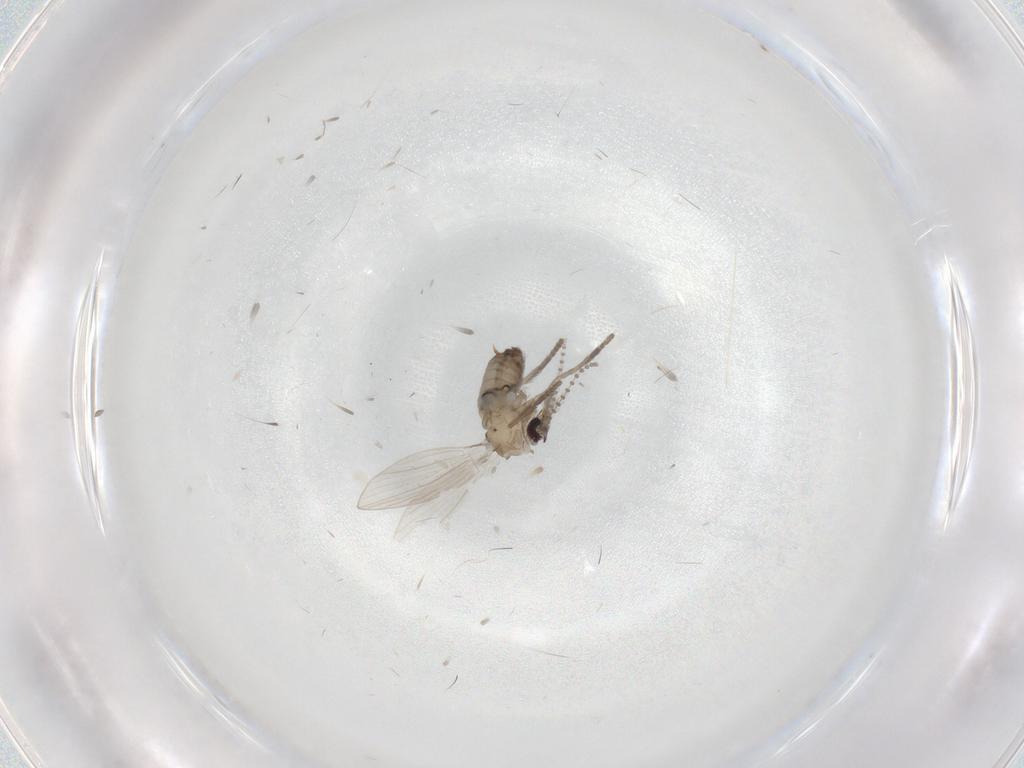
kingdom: Animalia
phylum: Arthropoda
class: Insecta
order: Diptera
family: Psychodidae
